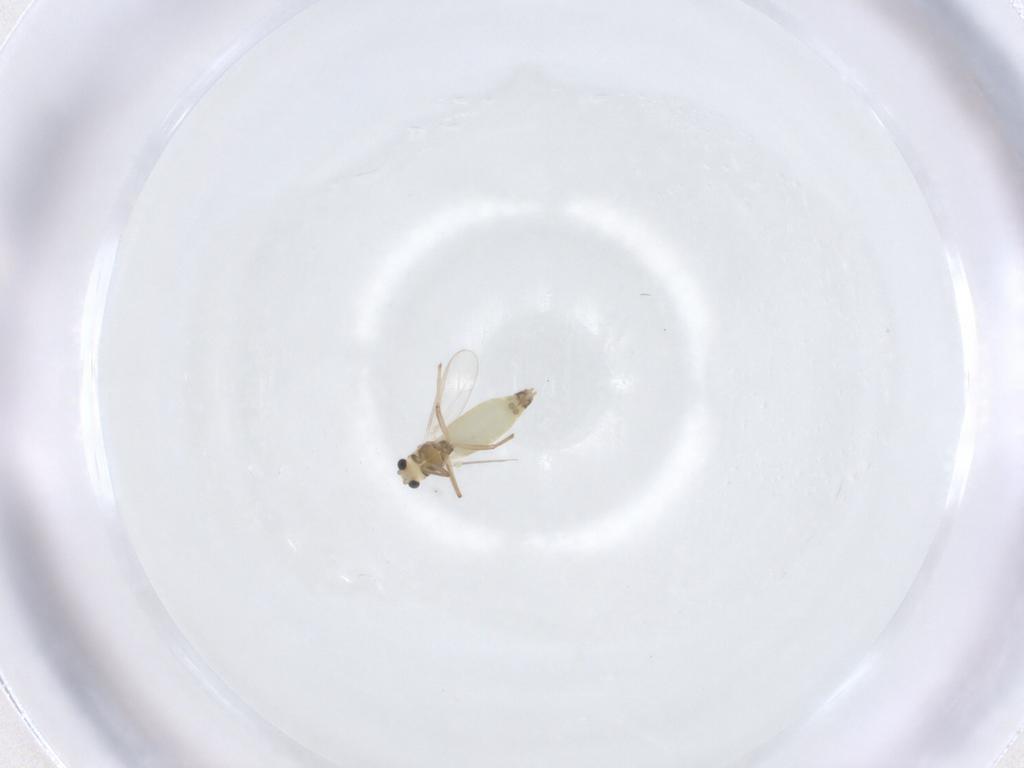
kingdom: Animalia
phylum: Arthropoda
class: Insecta
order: Diptera
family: Chironomidae
